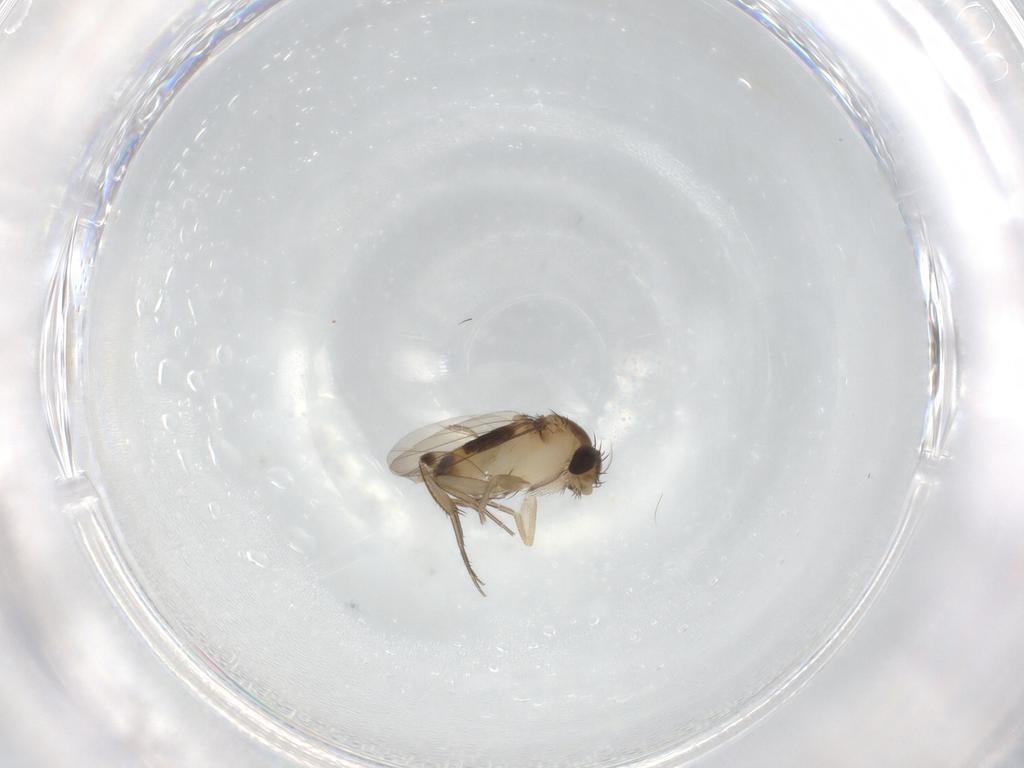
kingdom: Animalia
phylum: Arthropoda
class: Insecta
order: Diptera
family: Phoridae
